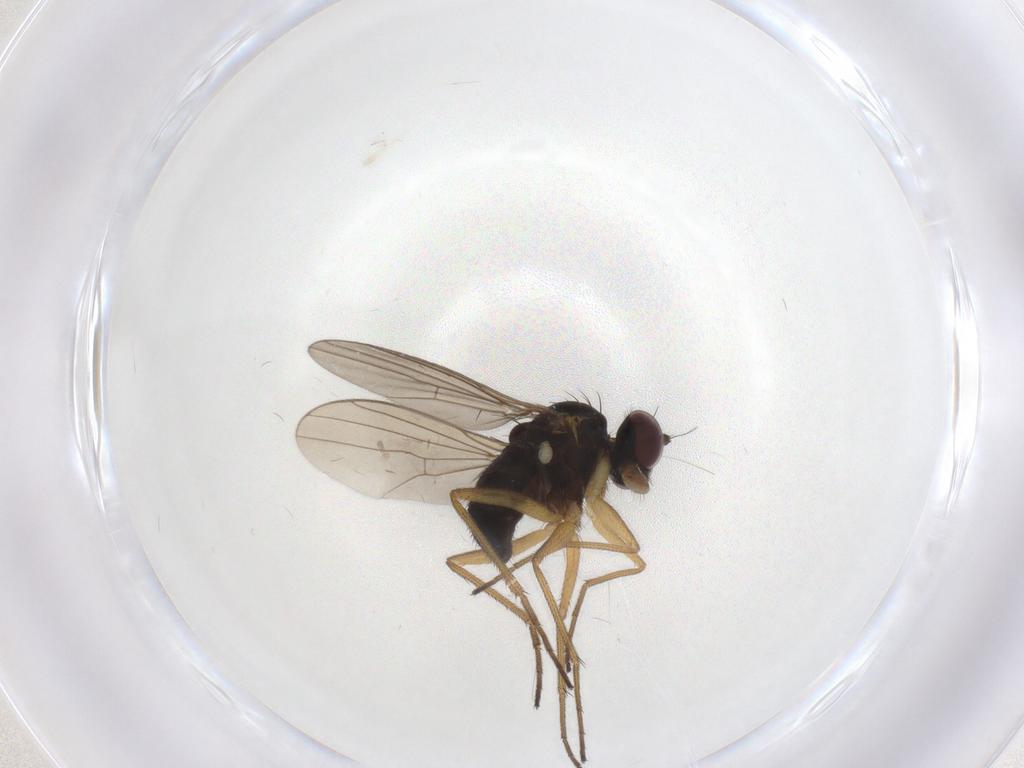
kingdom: Animalia
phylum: Arthropoda
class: Insecta
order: Diptera
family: Dolichopodidae
